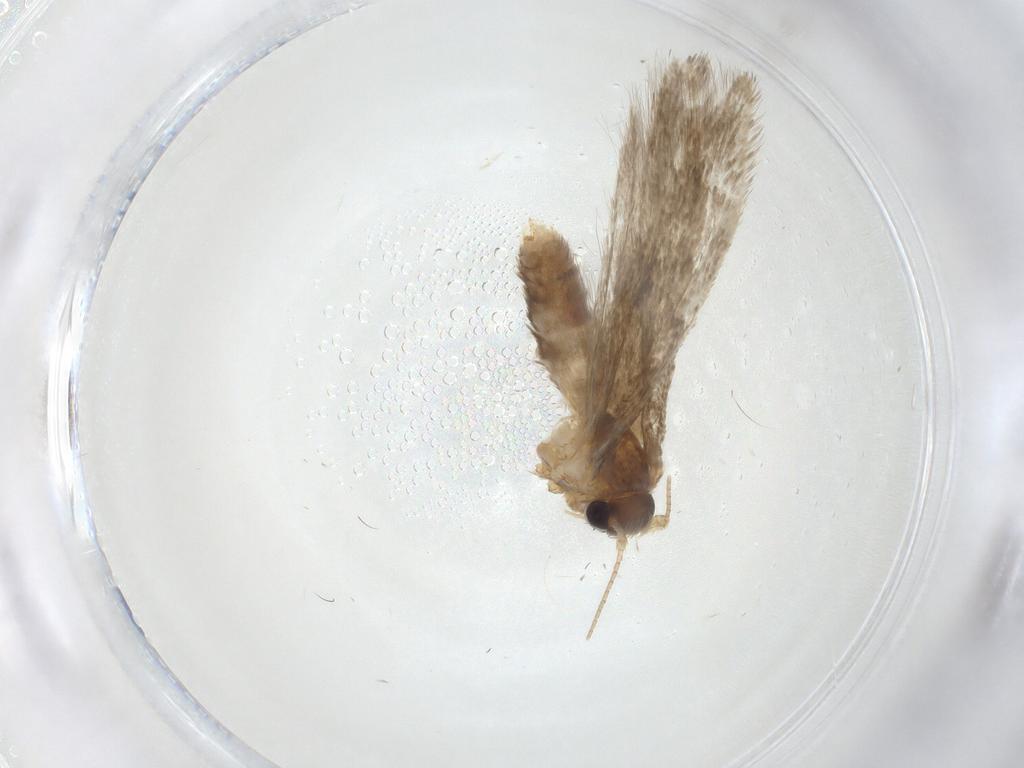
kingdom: Animalia
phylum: Arthropoda
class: Insecta
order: Lepidoptera
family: Blastobasidae
